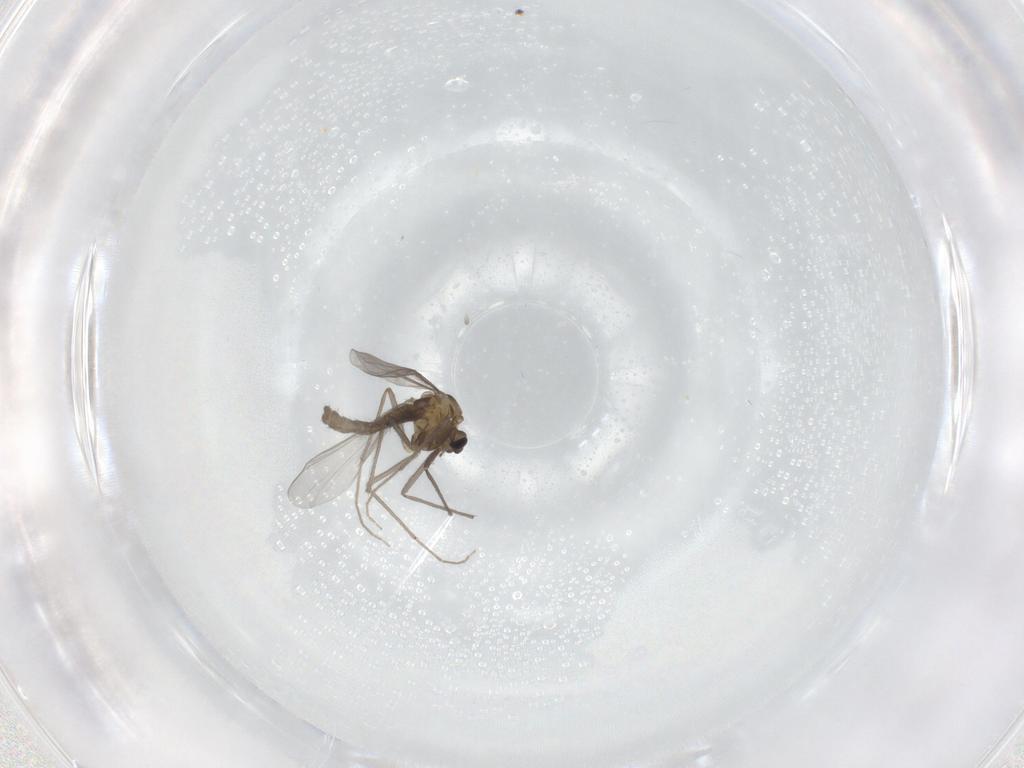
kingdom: Animalia
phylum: Arthropoda
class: Insecta
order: Diptera
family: Chironomidae
